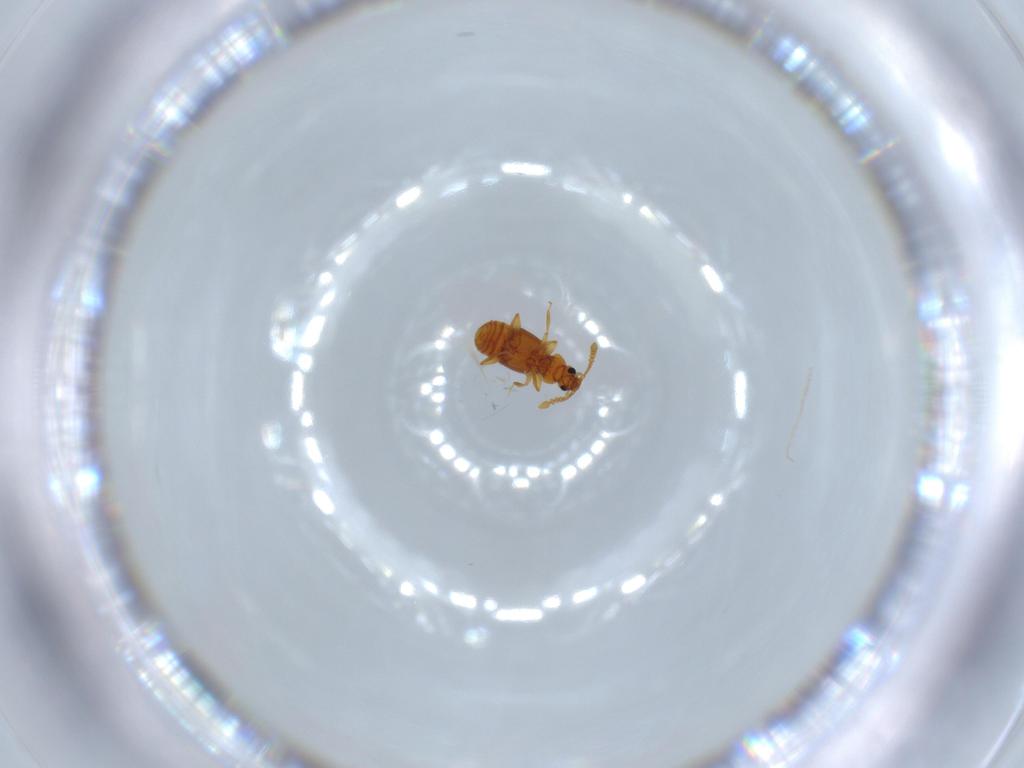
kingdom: Animalia
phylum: Arthropoda
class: Insecta
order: Coleoptera
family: Staphylinidae
